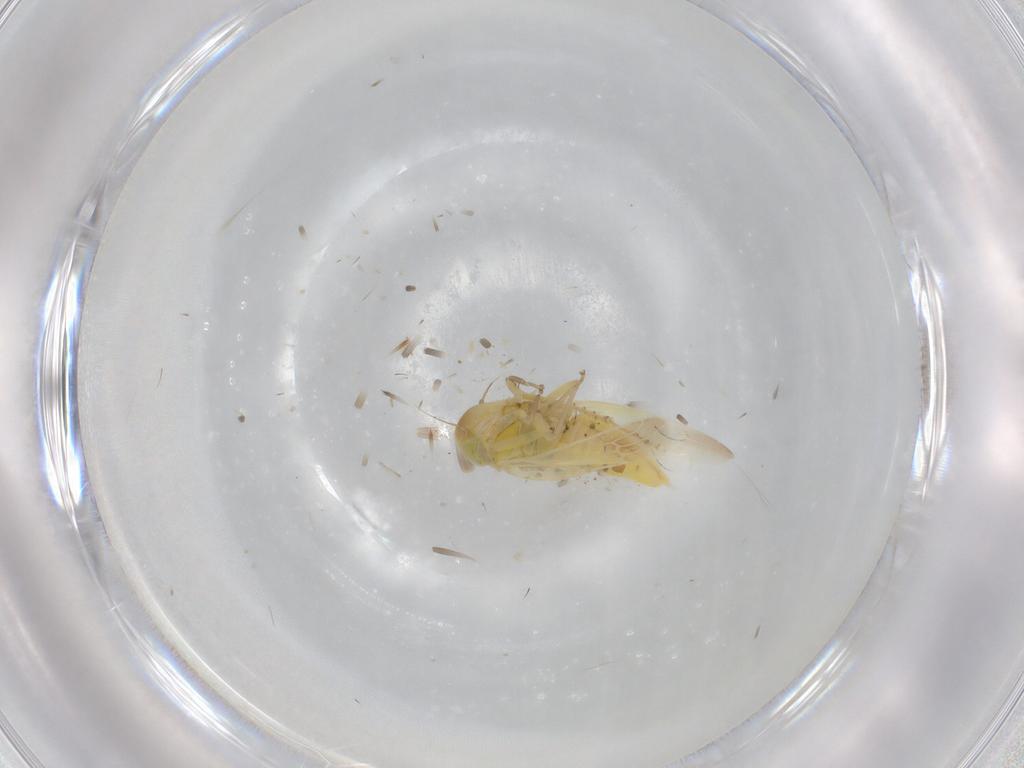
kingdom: Animalia
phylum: Arthropoda
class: Insecta
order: Hemiptera
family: Cicadellidae
